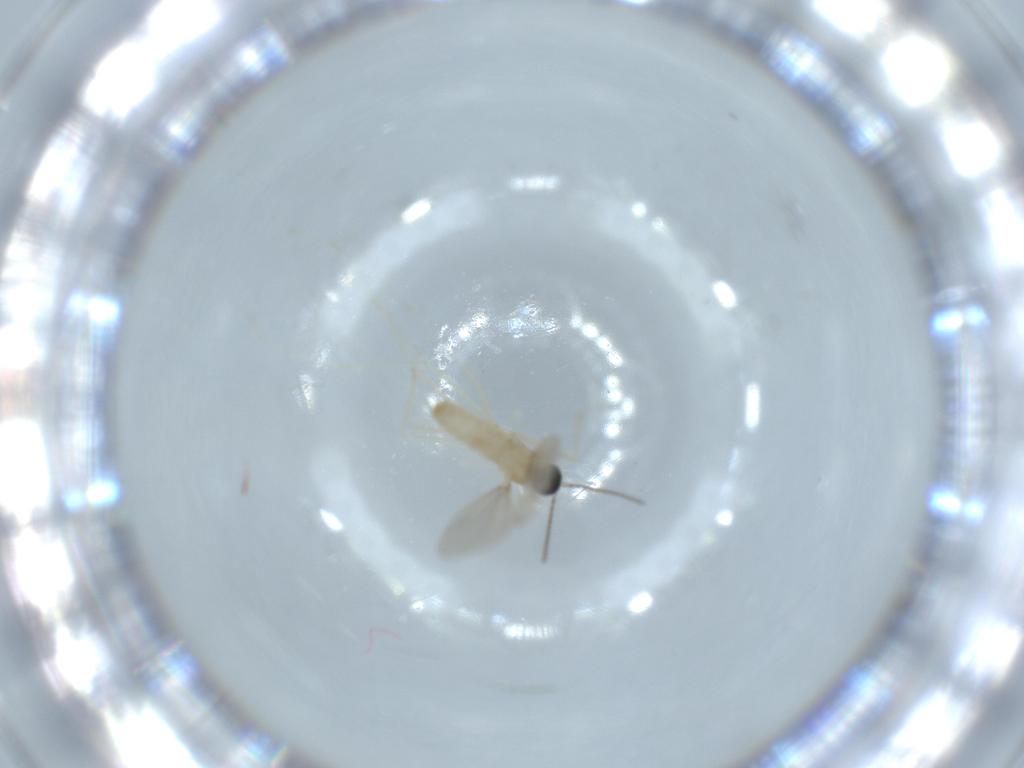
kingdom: Animalia
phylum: Arthropoda
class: Insecta
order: Diptera
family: Cecidomyiidae
